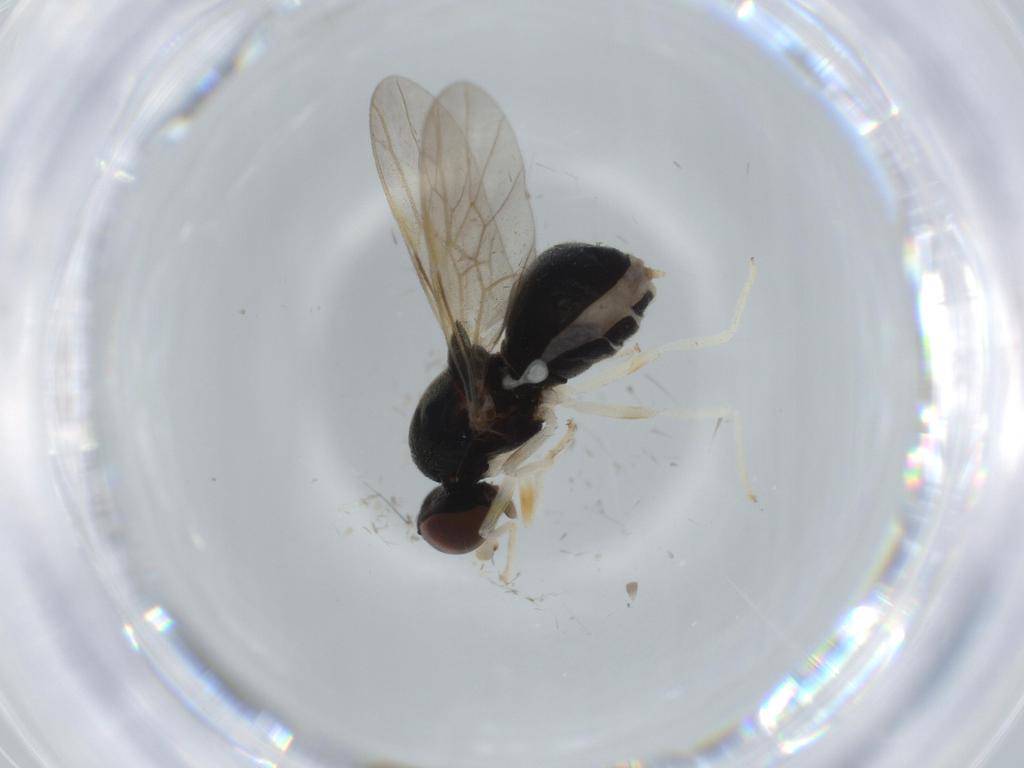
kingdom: Animalia
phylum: Arthropoda
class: Insecta
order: Diptera
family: Stratiomyidae
